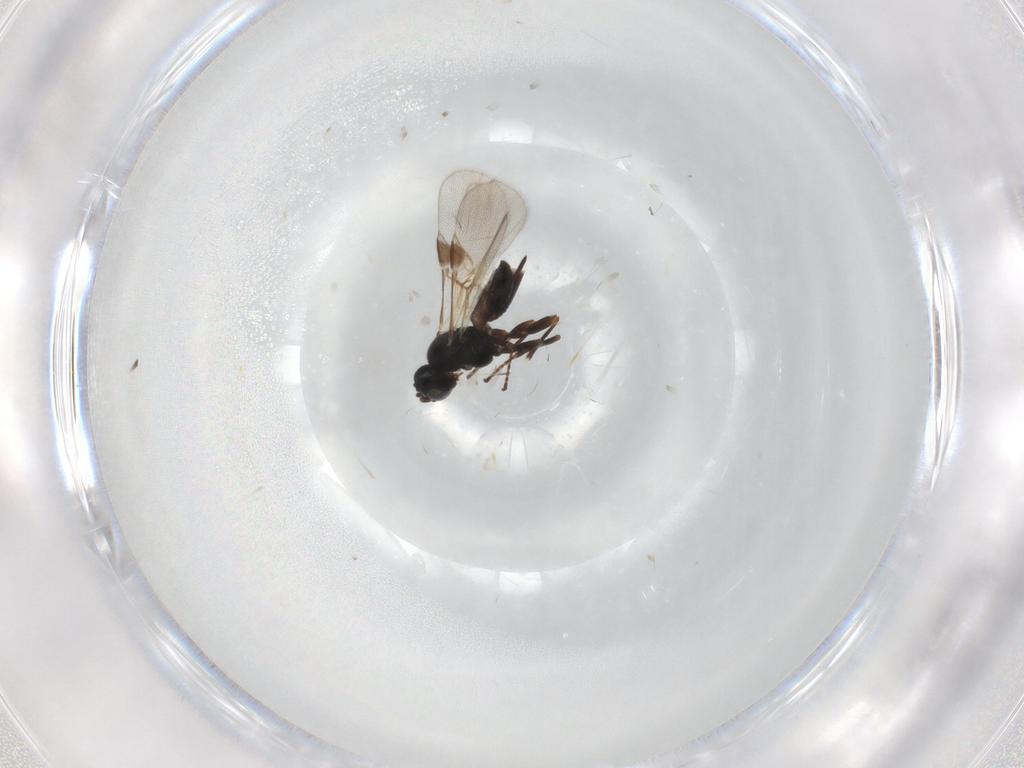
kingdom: Animalia
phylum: Arthropoda
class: Insecta
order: Hymenoptera
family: Braconidae
